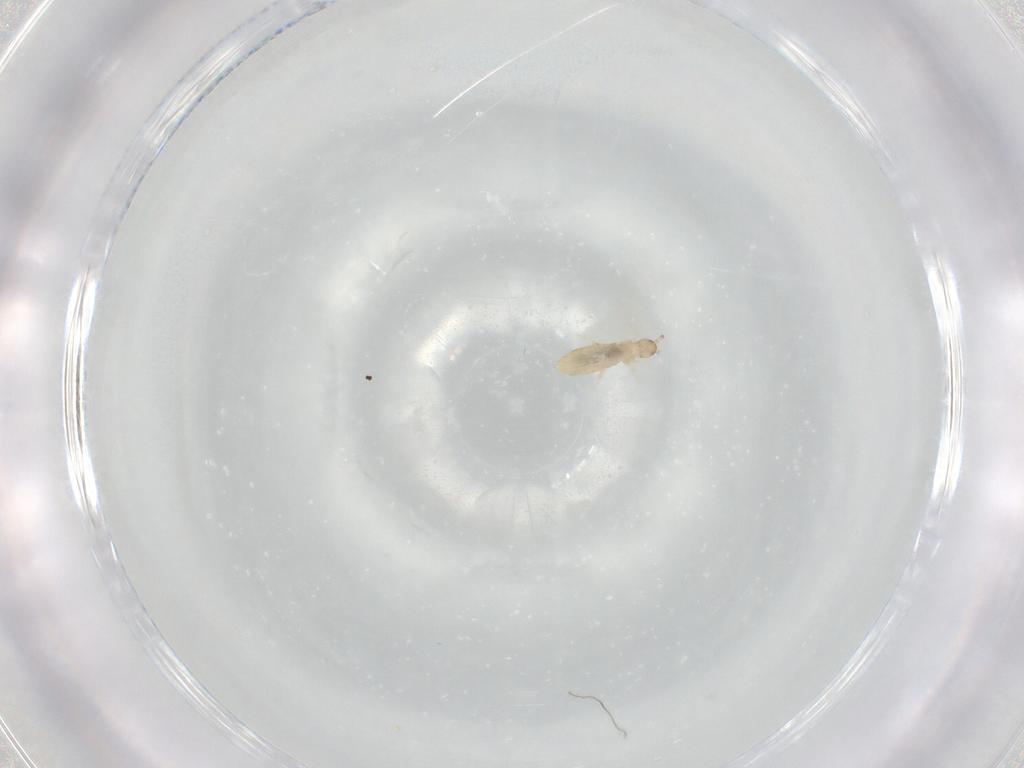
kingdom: Animalia
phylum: Arthropoda
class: Collembola
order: Entomobryomorpha
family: Entomobryidae
